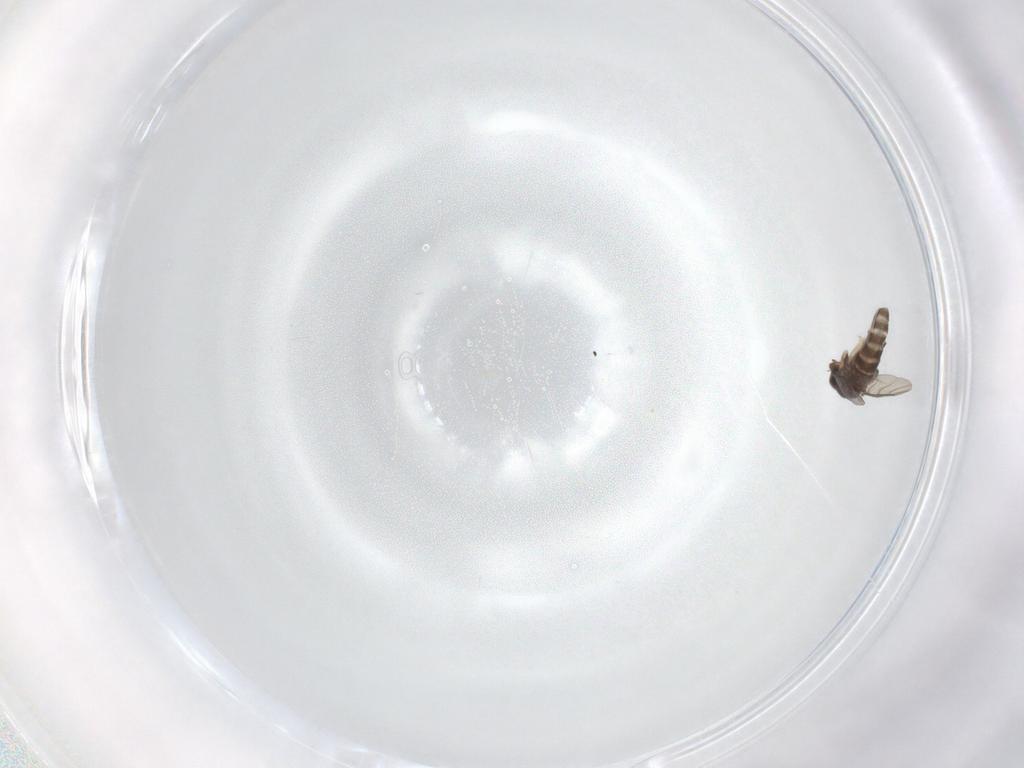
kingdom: Animalia
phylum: Arthropoda
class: Insecta
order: Diptera
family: Phoridae
